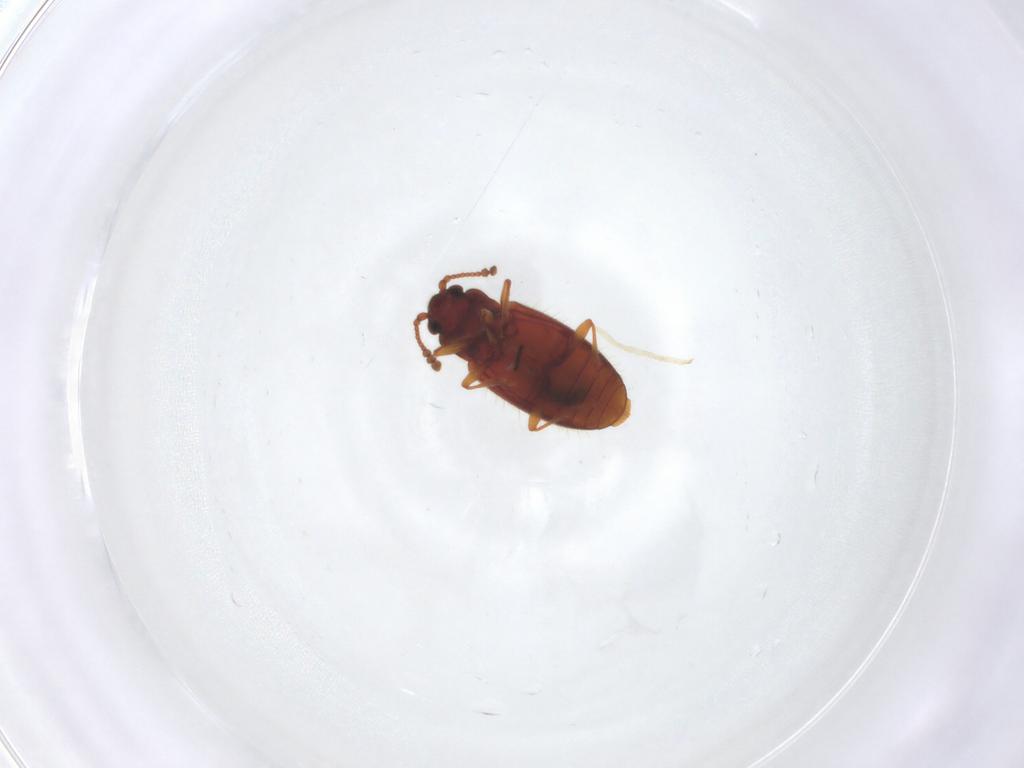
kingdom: Animalia
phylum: Arthropoda
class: Insecta
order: Coleoptera
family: Cryptophagidae
